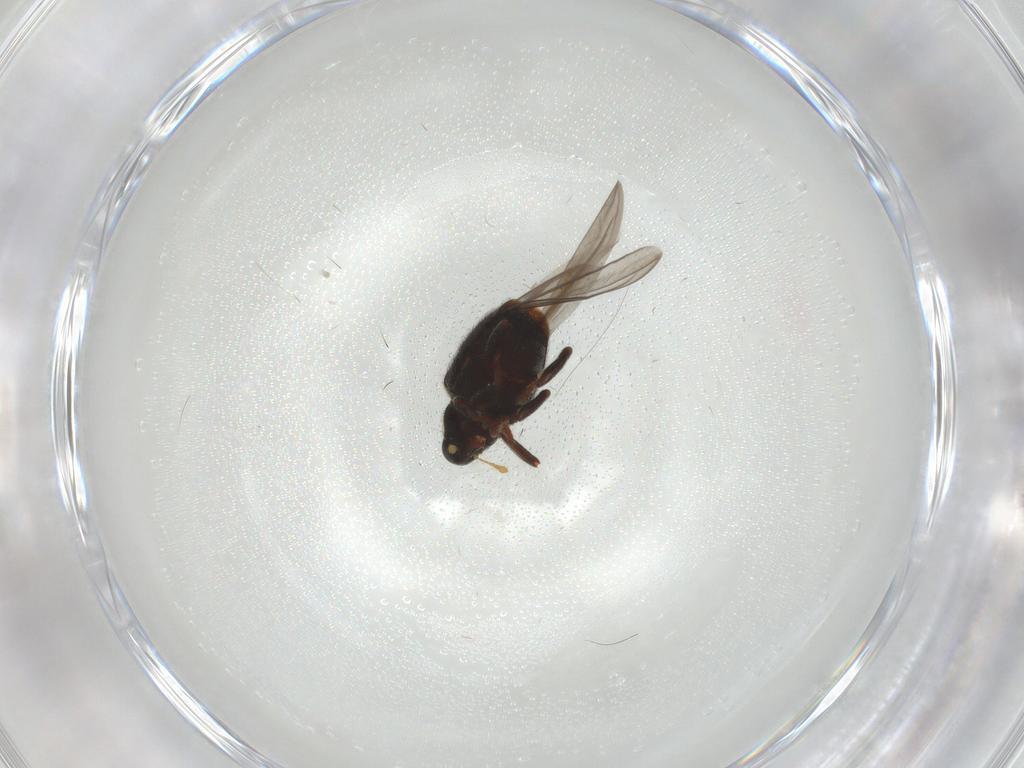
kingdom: Animalia
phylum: Arthropoda
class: Insecta
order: Coleoptera
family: Curculionidae
